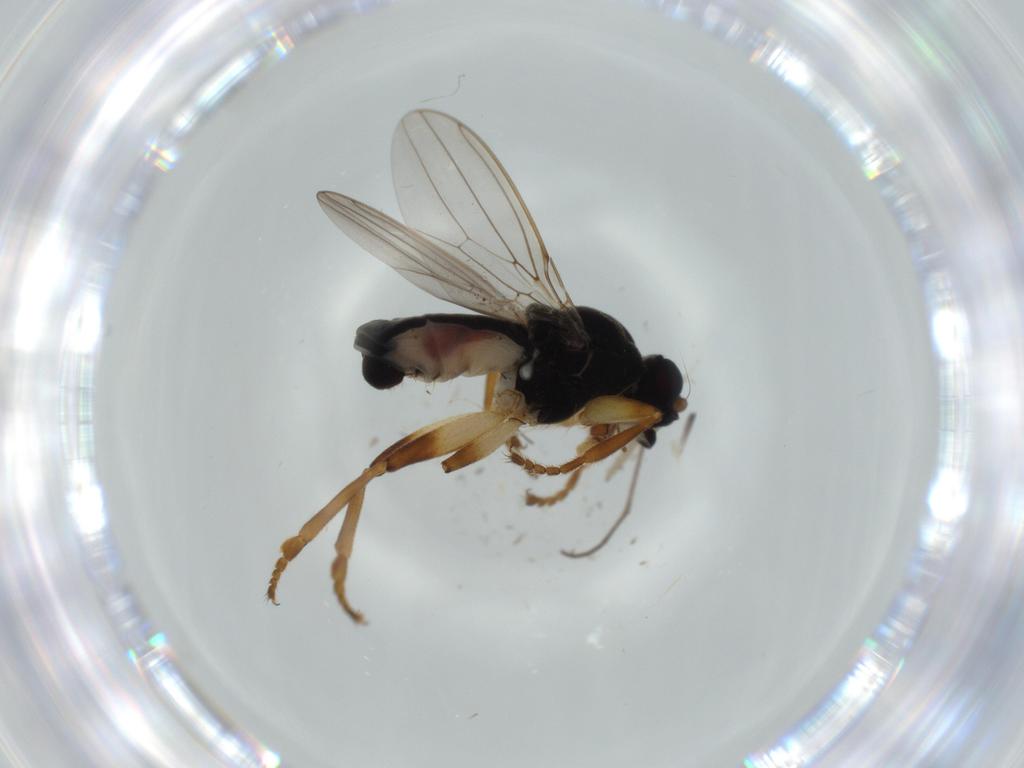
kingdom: Animalia
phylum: Arthropoda
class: Insecta
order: Diptera
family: Sphaeroceridae
